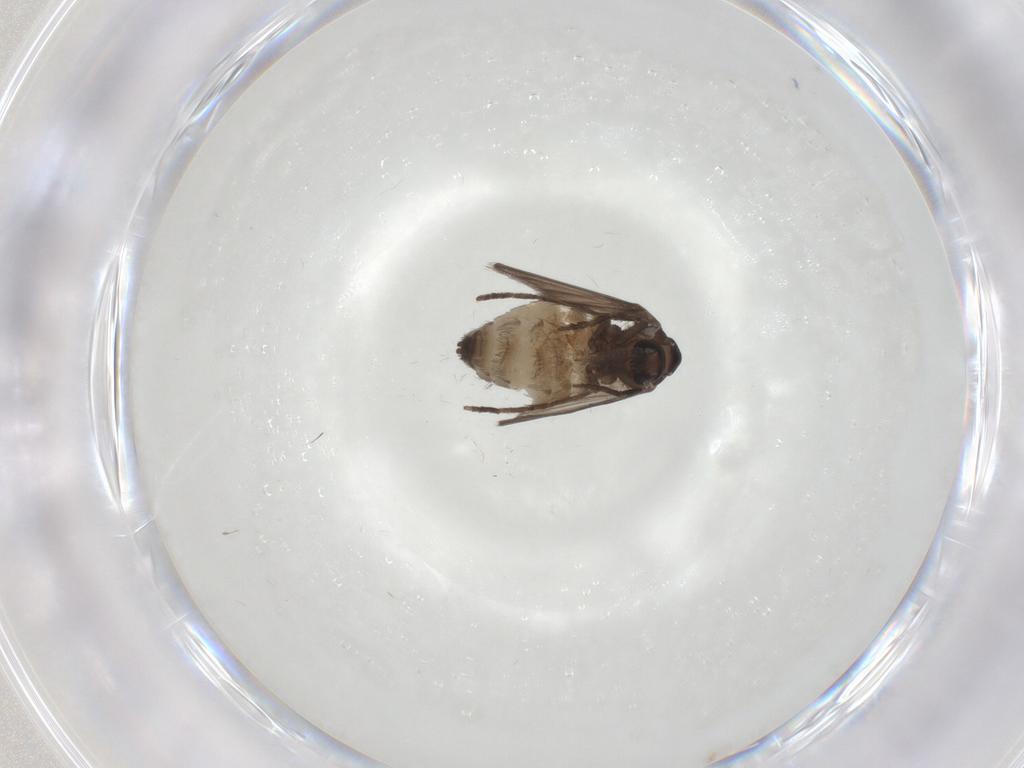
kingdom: Animalia
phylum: Arthropoda
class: Insecta
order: Diptera
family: Psychodidae
